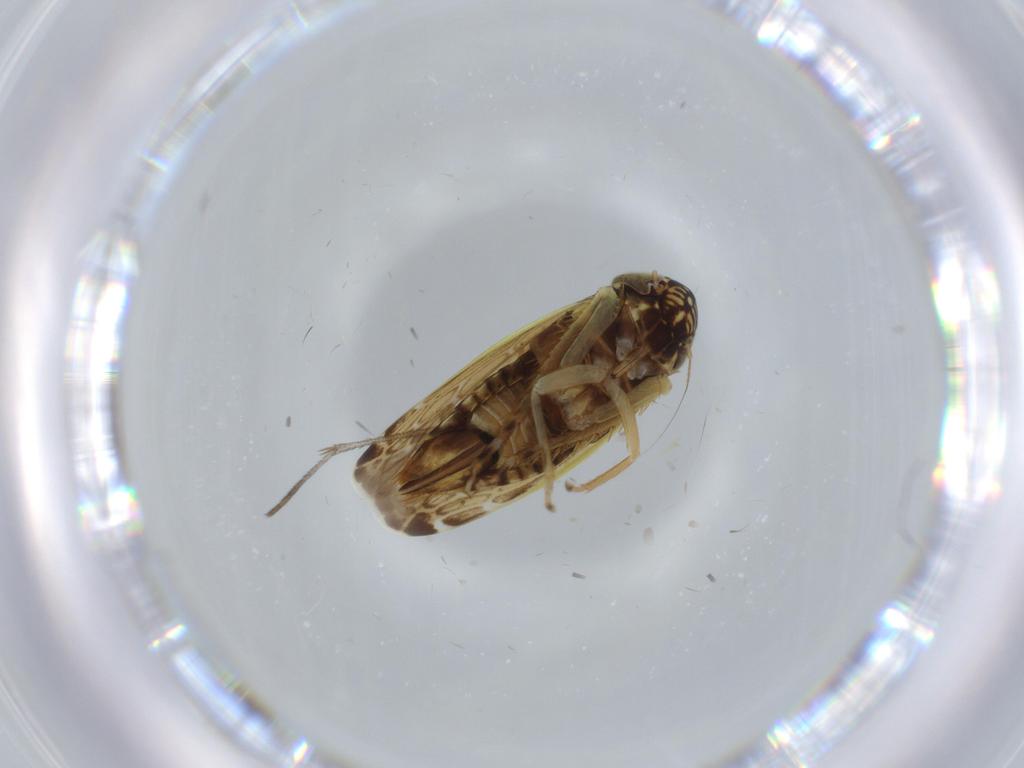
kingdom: Animalia
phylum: Arthropoda
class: Insecta
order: Hemiptera
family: Cicadellidae
